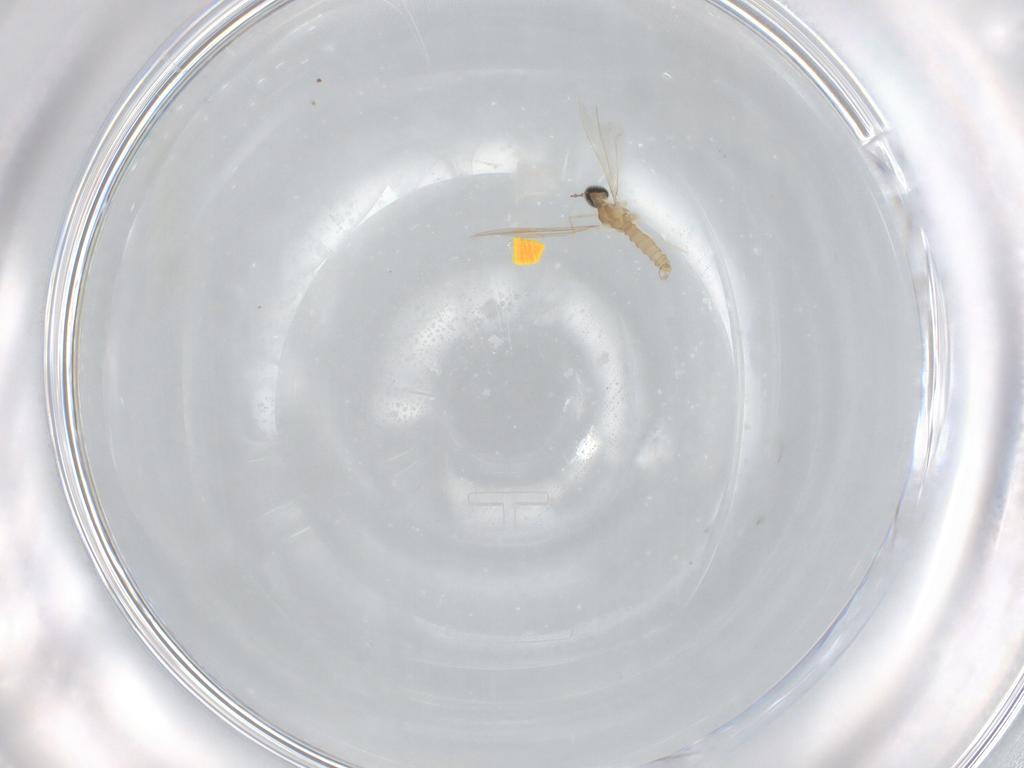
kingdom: Animalia
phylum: Arthropoda
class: Insecta
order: Diptera
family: Cecidomyiidae
